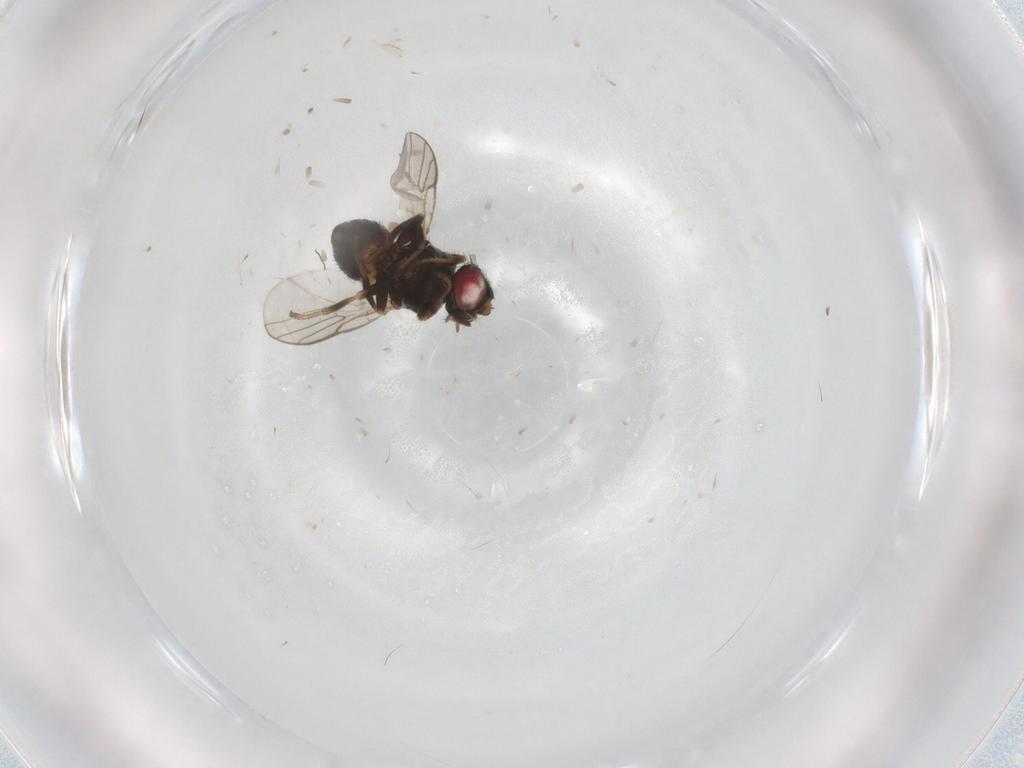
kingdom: Animalia
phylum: Arthropoda
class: Insecta
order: Diptera
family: Chloropidae
